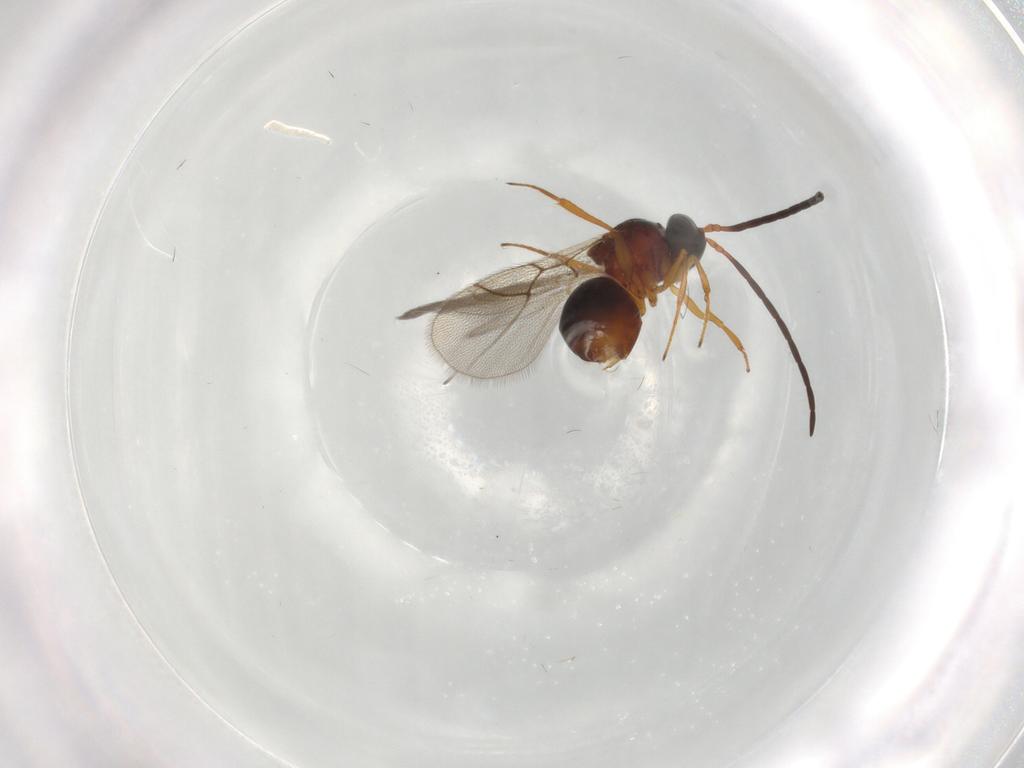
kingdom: Animalia
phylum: Arthropoda
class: Insecta
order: Hymenoptera
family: Figitidae
